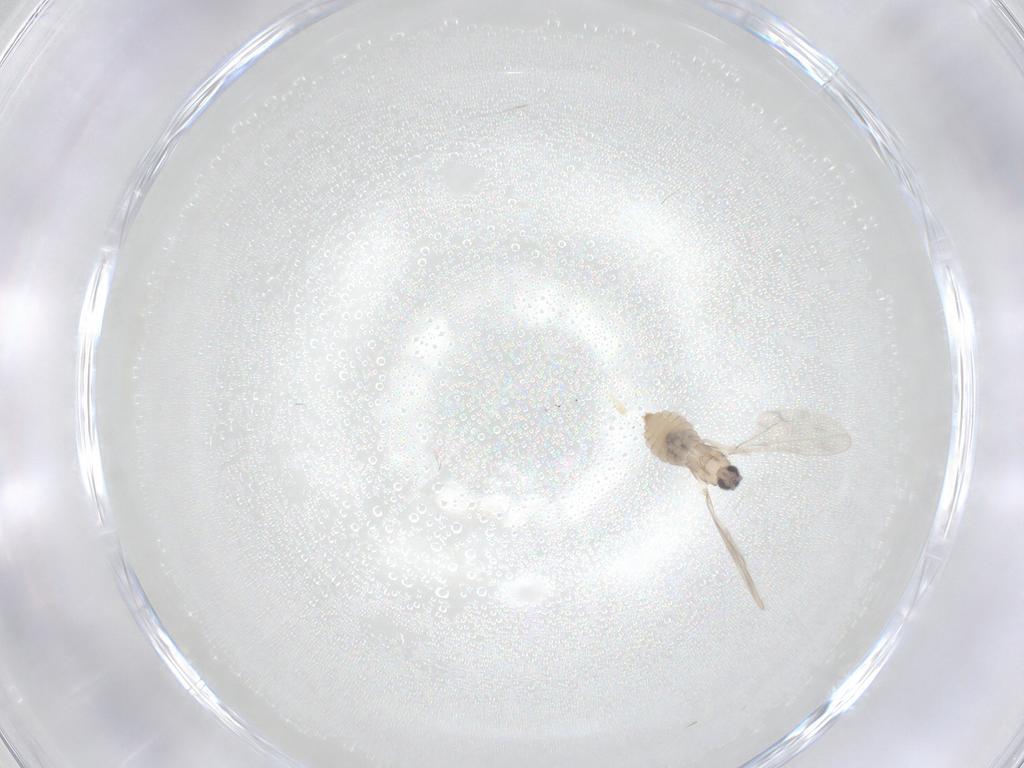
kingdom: Animalia
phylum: Arthropoda
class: Insecta
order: Diptera
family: Cecidomyiidae
